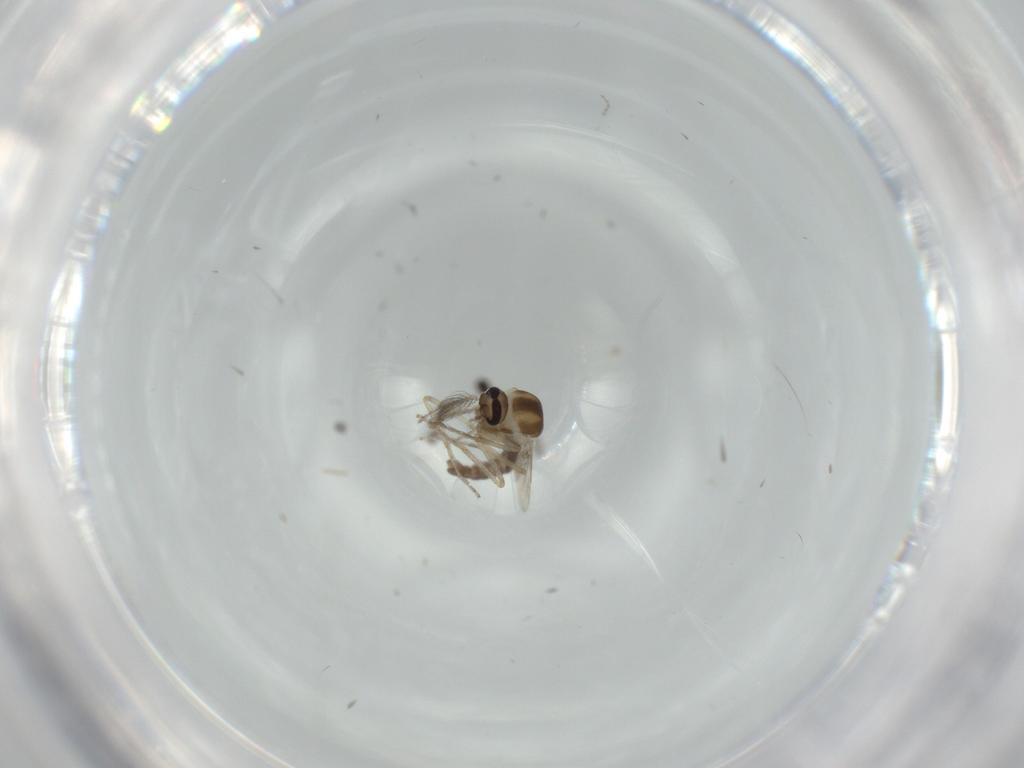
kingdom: Animalia
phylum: Arthropoda
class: Insecta
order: Diptera
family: Ceratopogonidae
